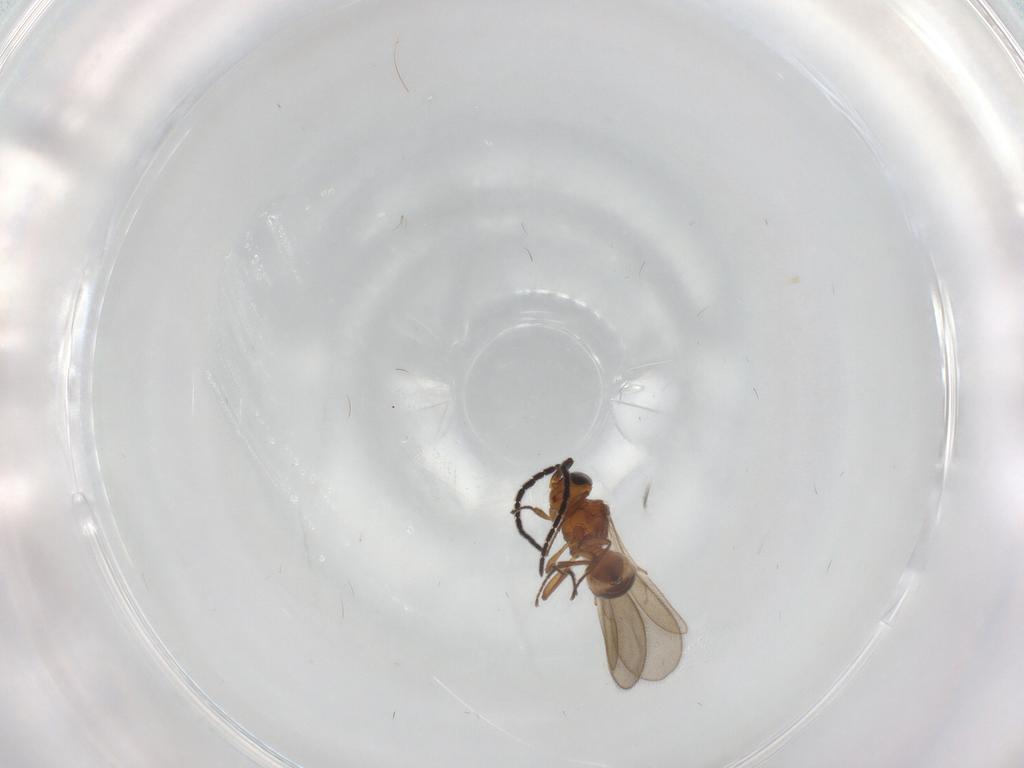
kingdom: Animalia
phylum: Arthropoda
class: Insecta
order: Hymenoptera
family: Scelionidae
